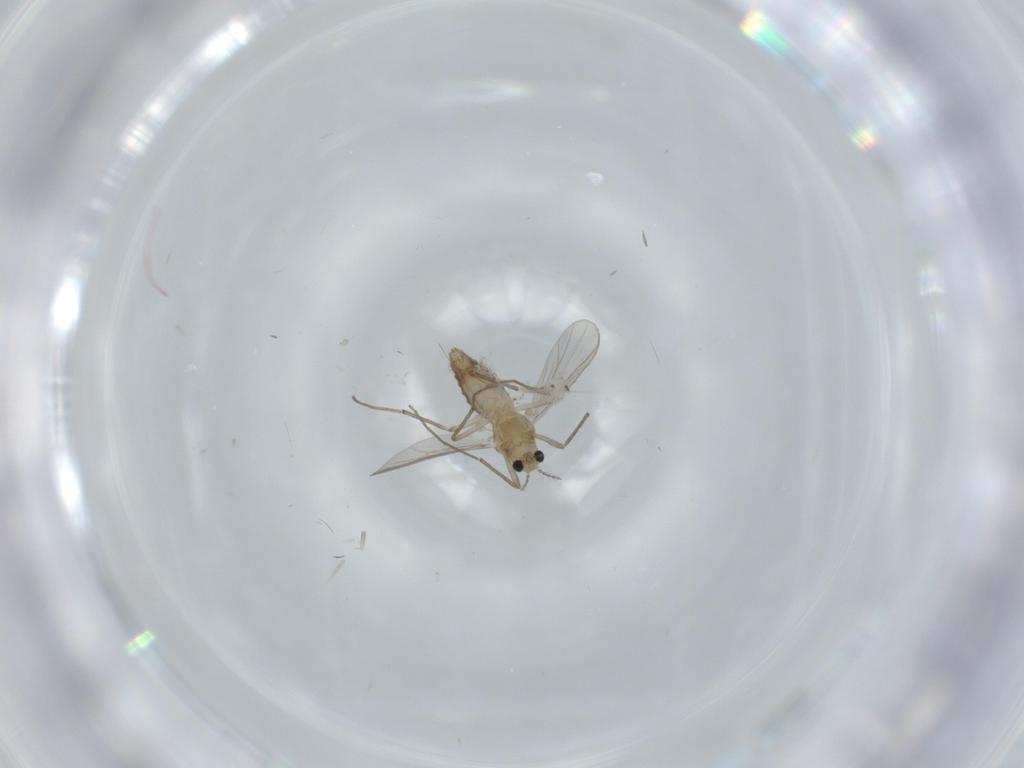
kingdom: Animalia
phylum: Arthropoda
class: Insecta
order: Diptera
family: Chironomidae
